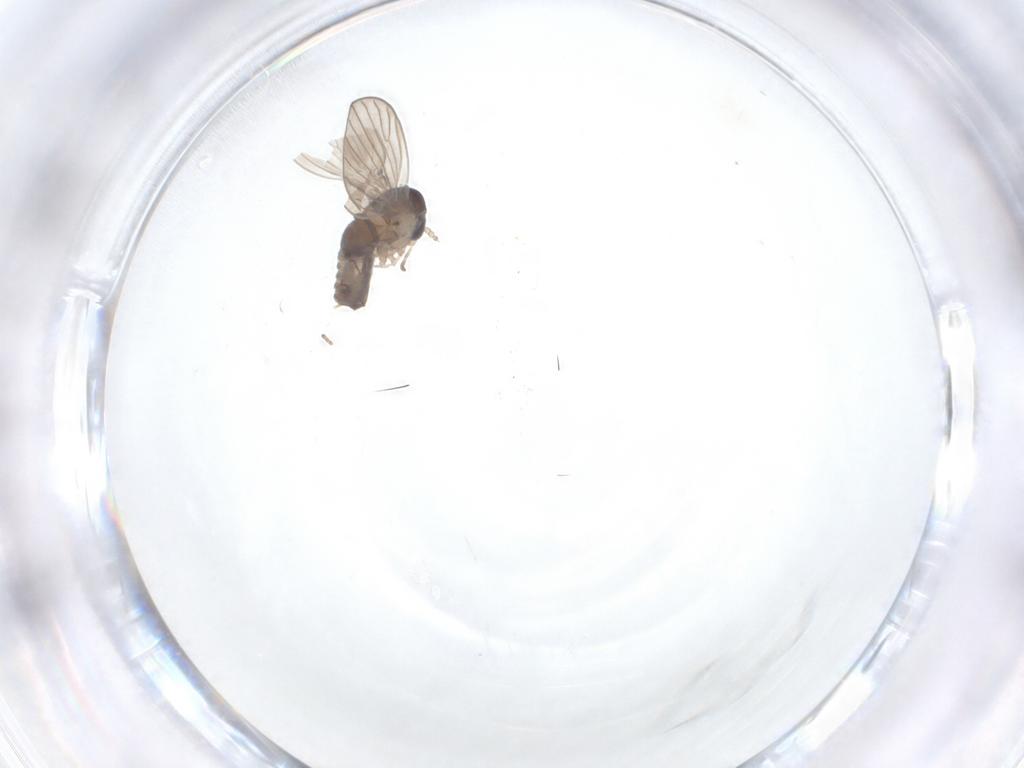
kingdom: Animalia
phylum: Arthropoda
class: Insecta
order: Diptera
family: Psychodidae
